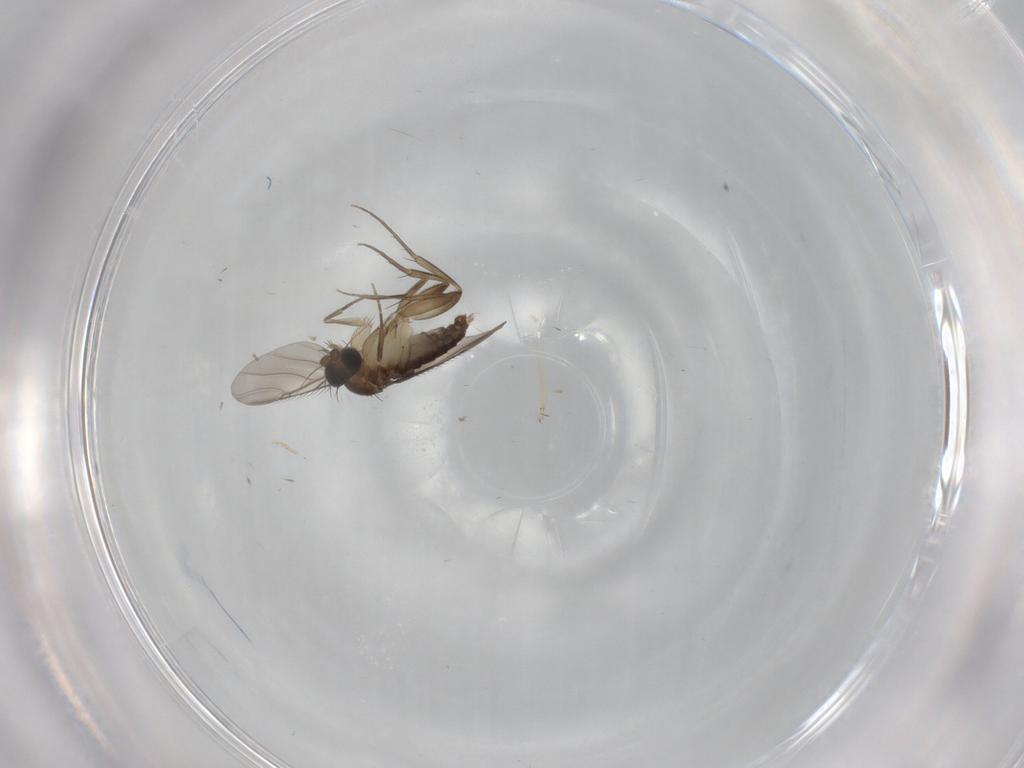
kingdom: Animalia
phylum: Arthropoda
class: Insecta
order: Diptera
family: Phoridae
